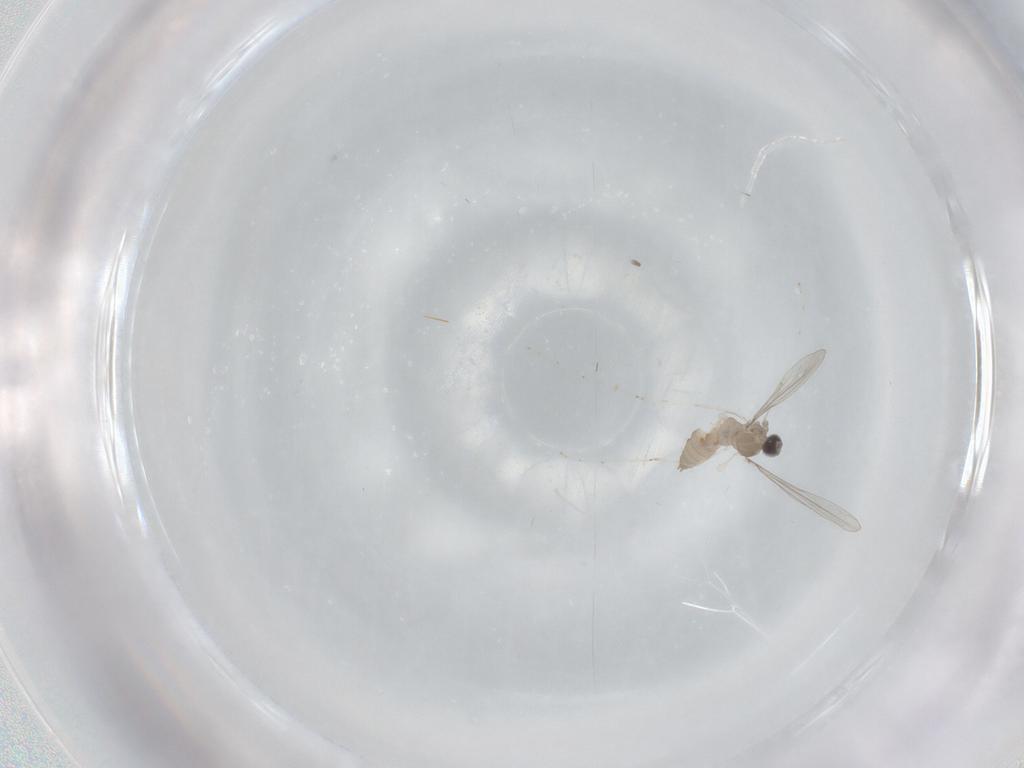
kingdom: Animalia
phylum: Arthropoda
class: Insecta
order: Diptera
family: Cecidomyiidae
